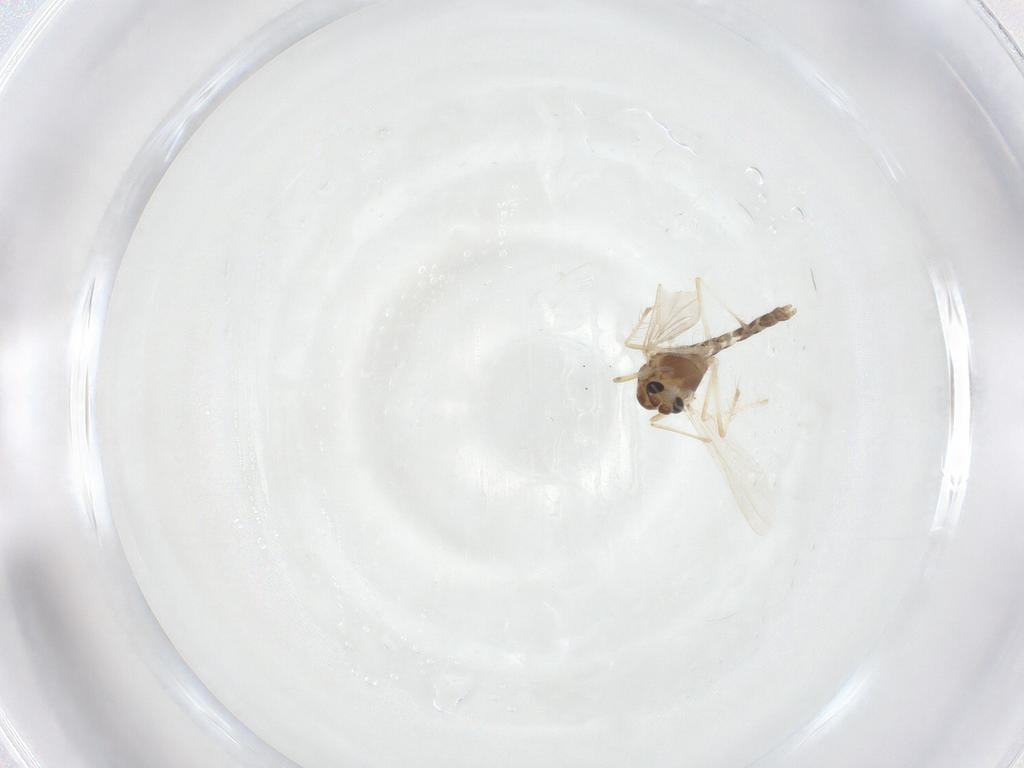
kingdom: Animalia
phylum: Arthropoda
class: Insecta
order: Diptera
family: Chironomidae
